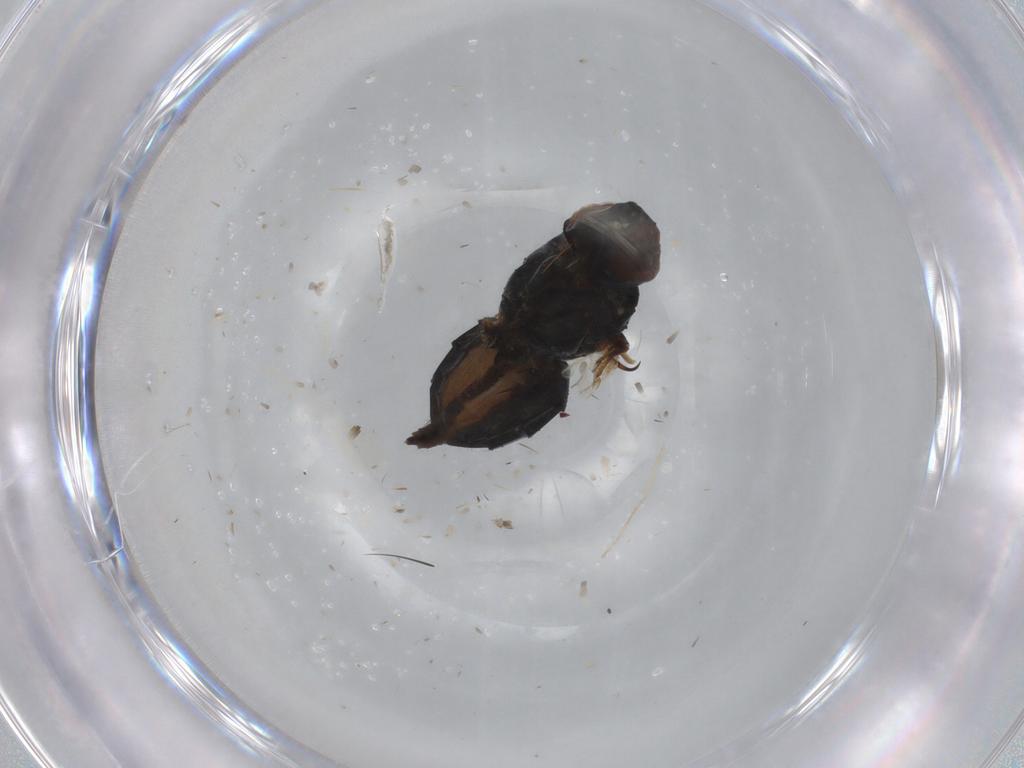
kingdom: Animalia
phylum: Arthropoda
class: Insecta
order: Diptera
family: Muscidae
